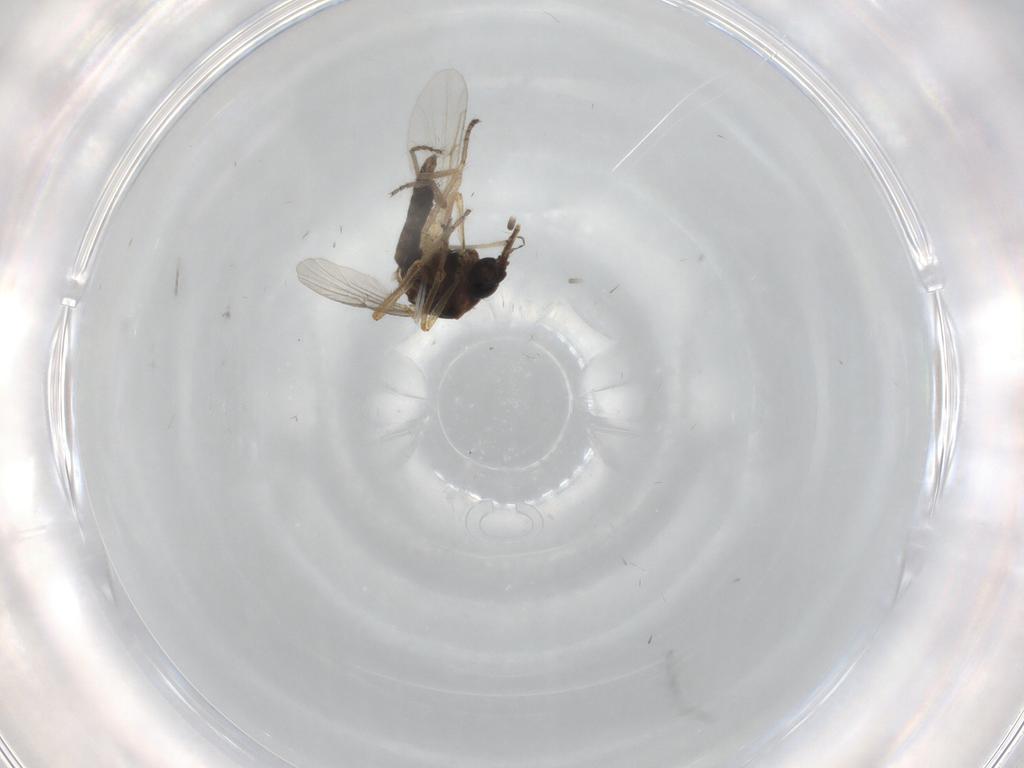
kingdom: Animalia
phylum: Arthropoda
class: Insecta
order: Diptera
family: Ceratopogonidae
